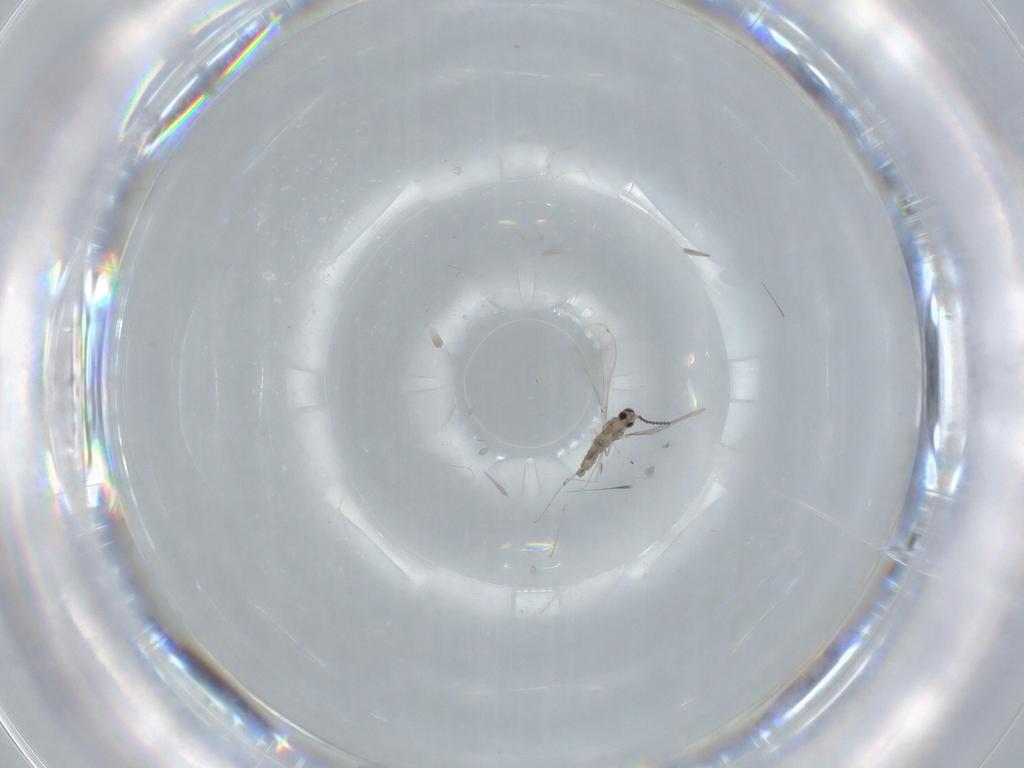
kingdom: Animalia
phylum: Arthropoda
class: Insecta
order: Diptera
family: Cecidomyiidae
